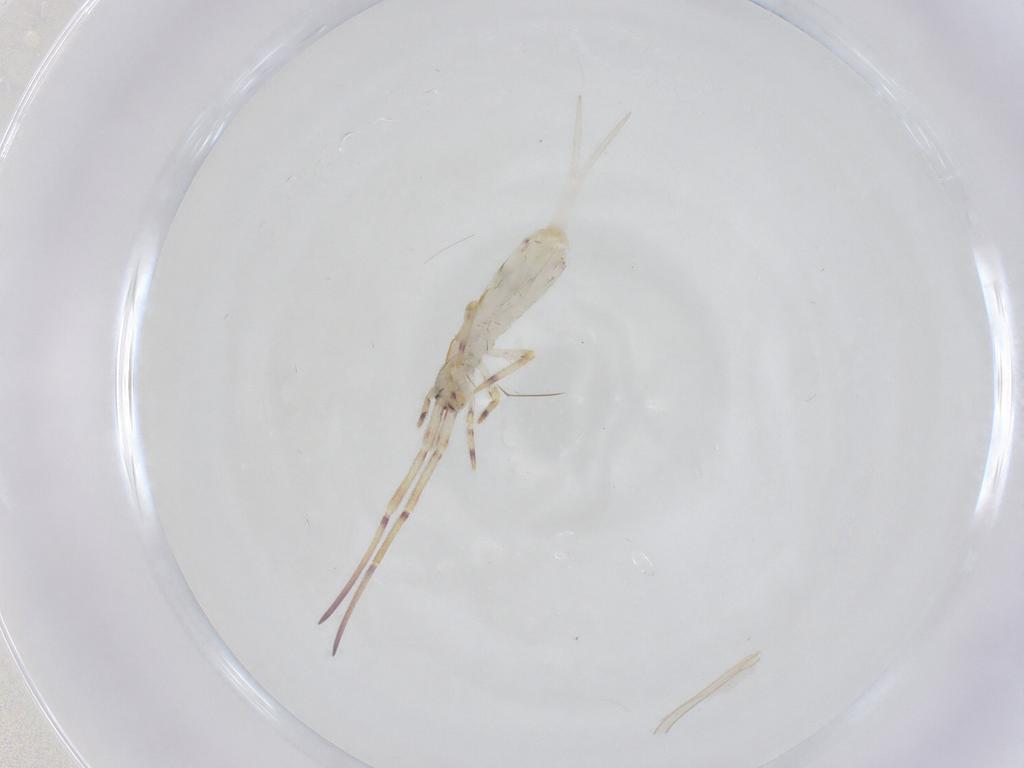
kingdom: Animalia
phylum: Arthropoda
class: Collembola
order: Entomobryomorpha
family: Entomobryidae
